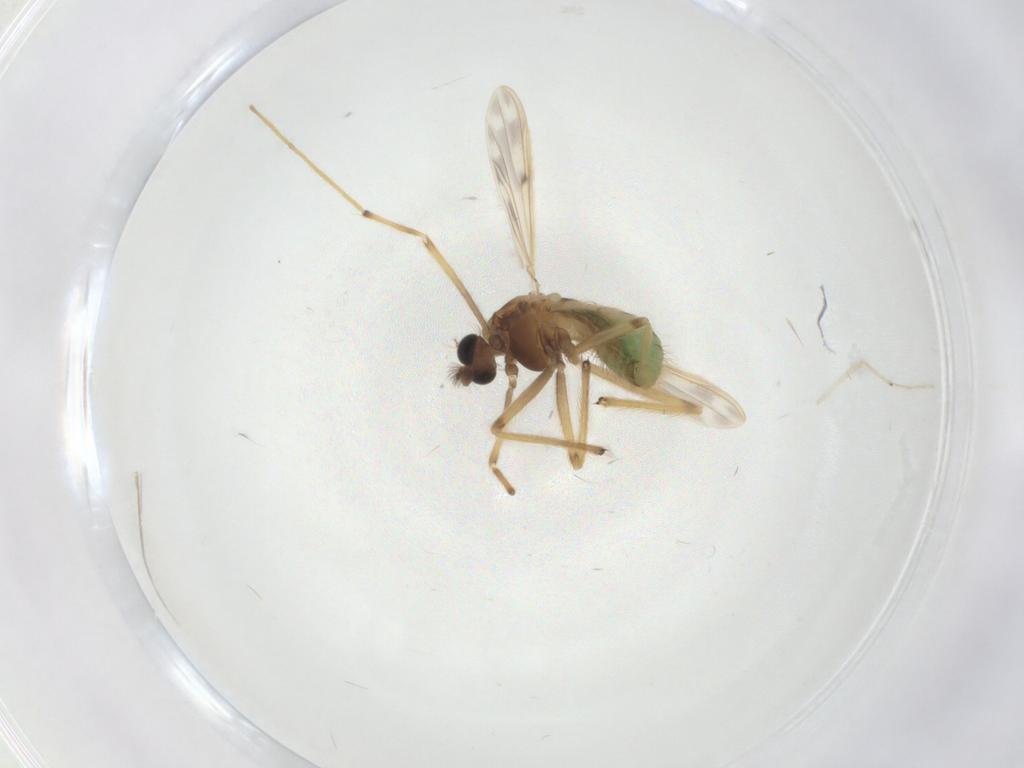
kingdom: Animalia
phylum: Arthropoda
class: Insecta
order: Diptera
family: Chironomidae
